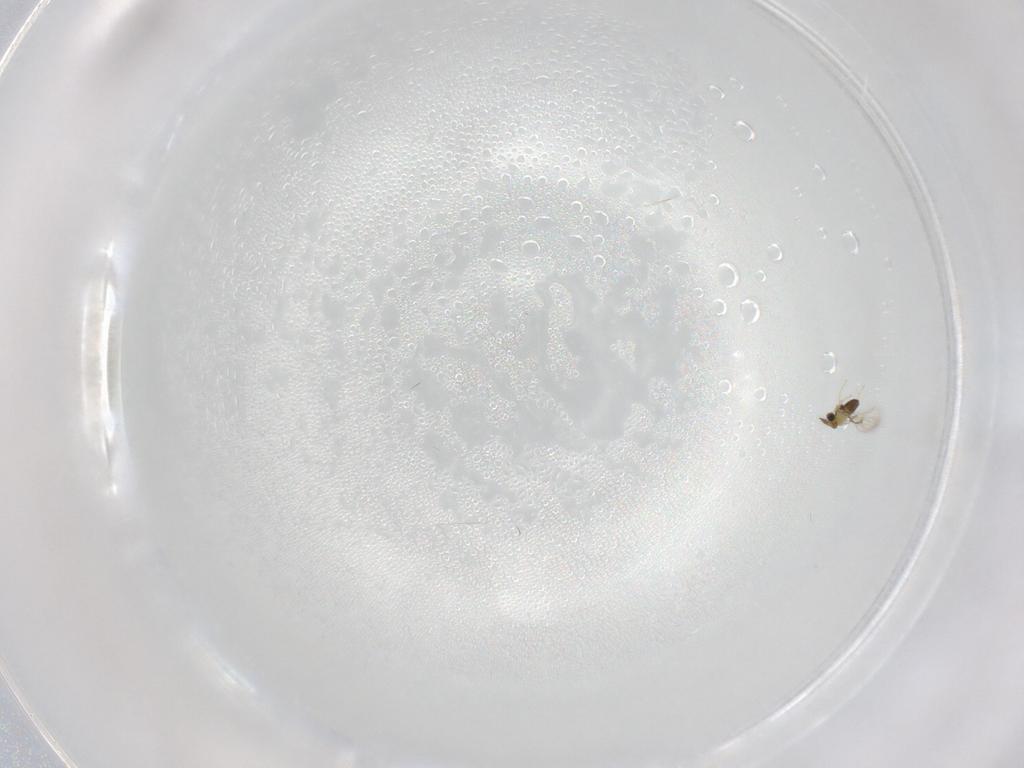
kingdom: Animalia
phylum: Arthropoda
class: Insecta
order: Hymenoptera
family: Trichogrammatidae
